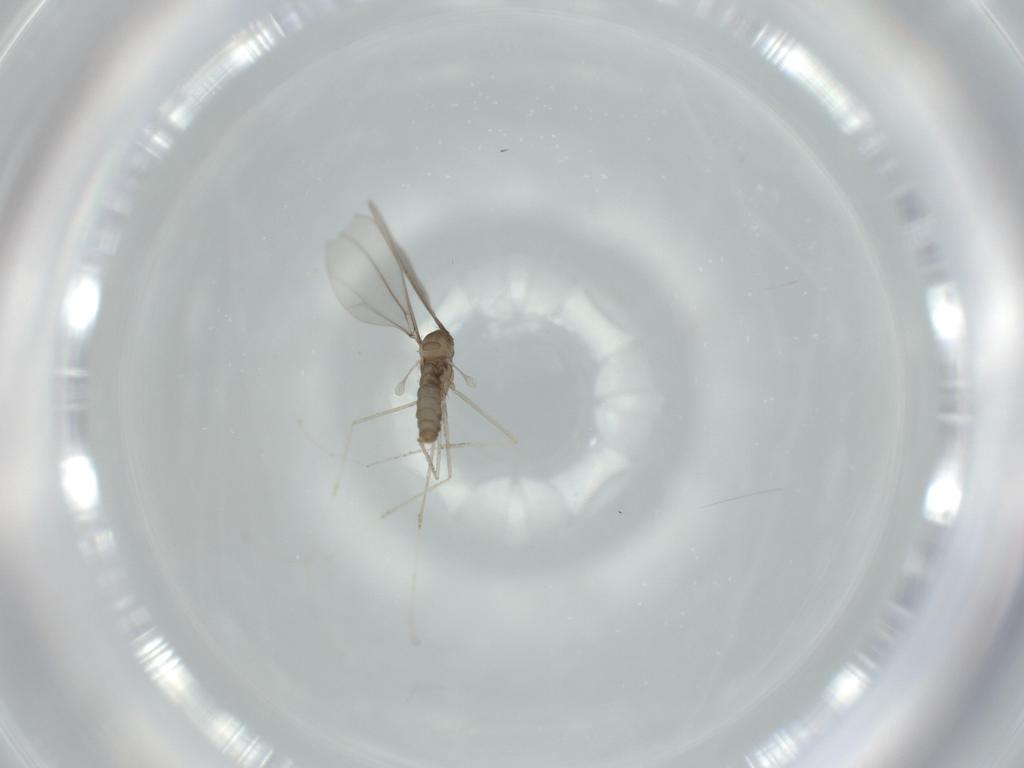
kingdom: Animalia
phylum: Arthropoda
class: Insecta
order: Diptera
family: Cecidomyiidae
